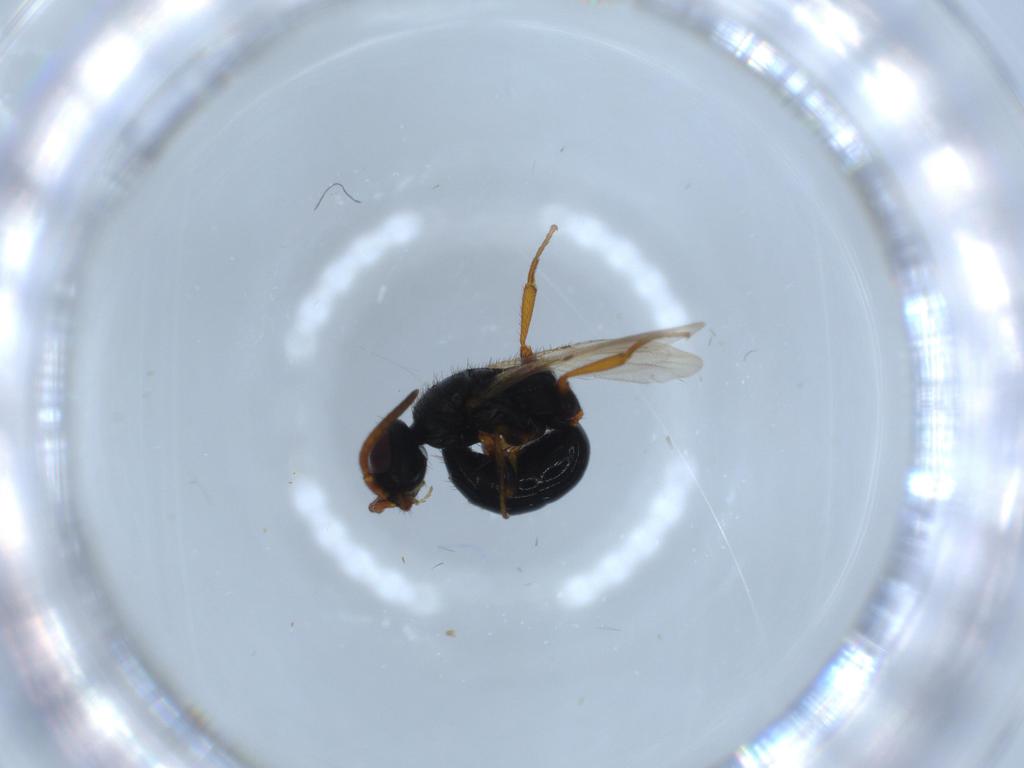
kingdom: Animalia
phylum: Arthropoda
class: Insecta
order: Hymenoptera
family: Bethylidae
